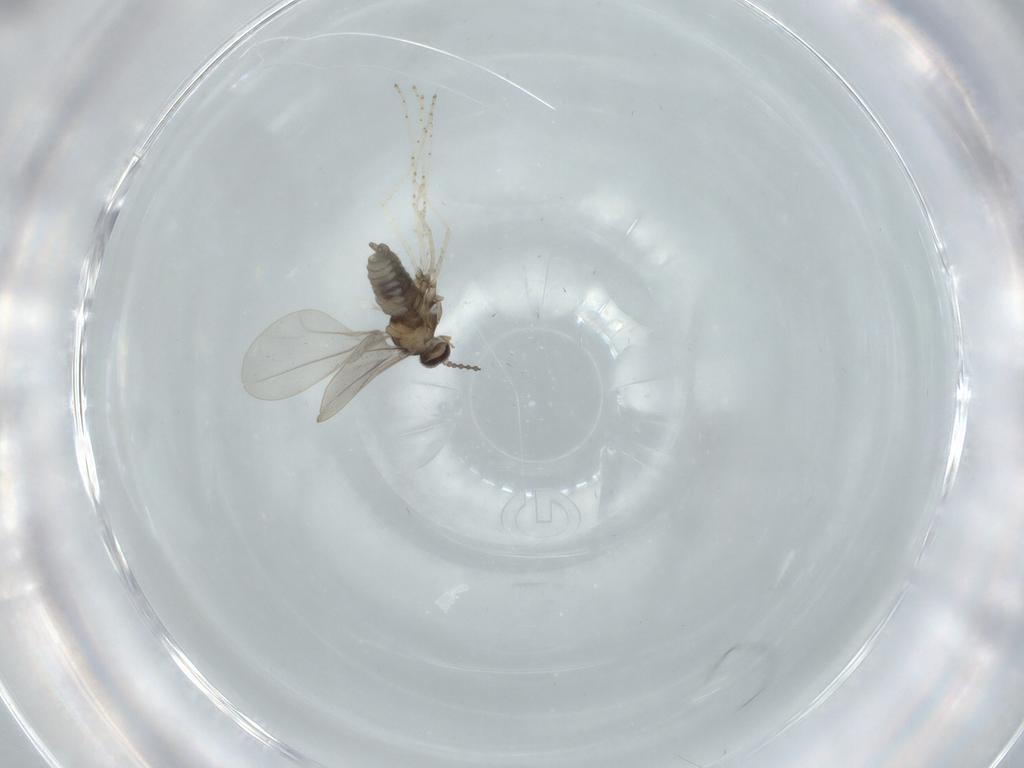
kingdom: Animalia
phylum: Arthropoda
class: Insecta
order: Diptera
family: Cecidomyiidae
